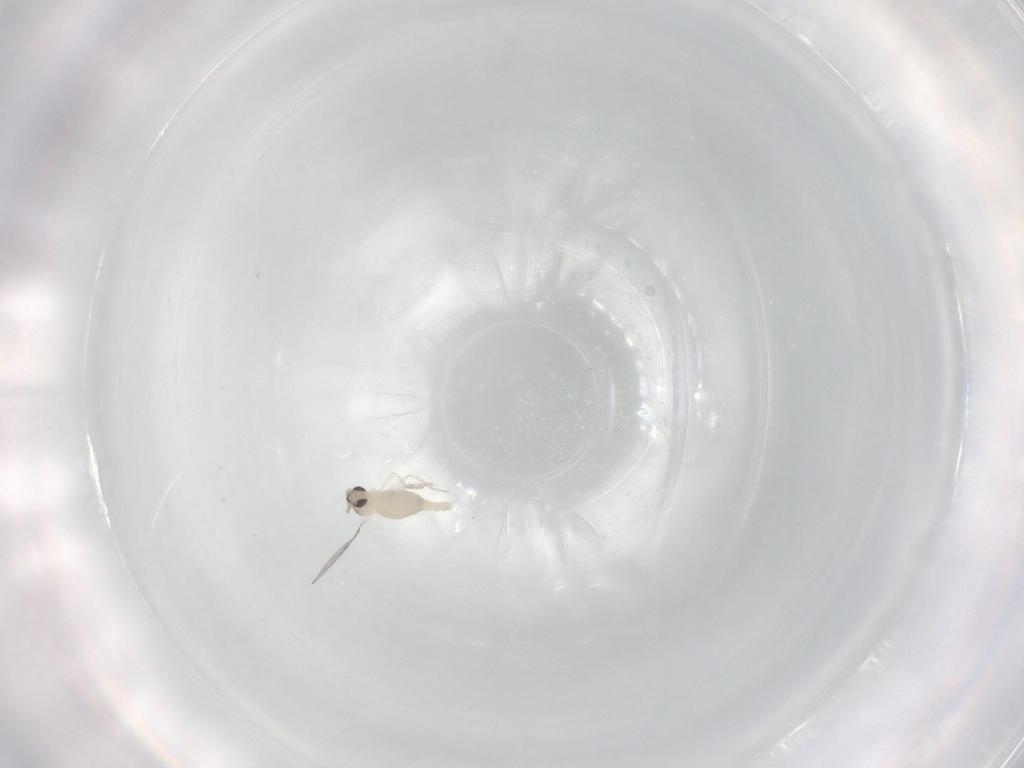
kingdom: Animalia
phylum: Arthropoda
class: Insecta
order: Diptera
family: Cecidomyiidae
